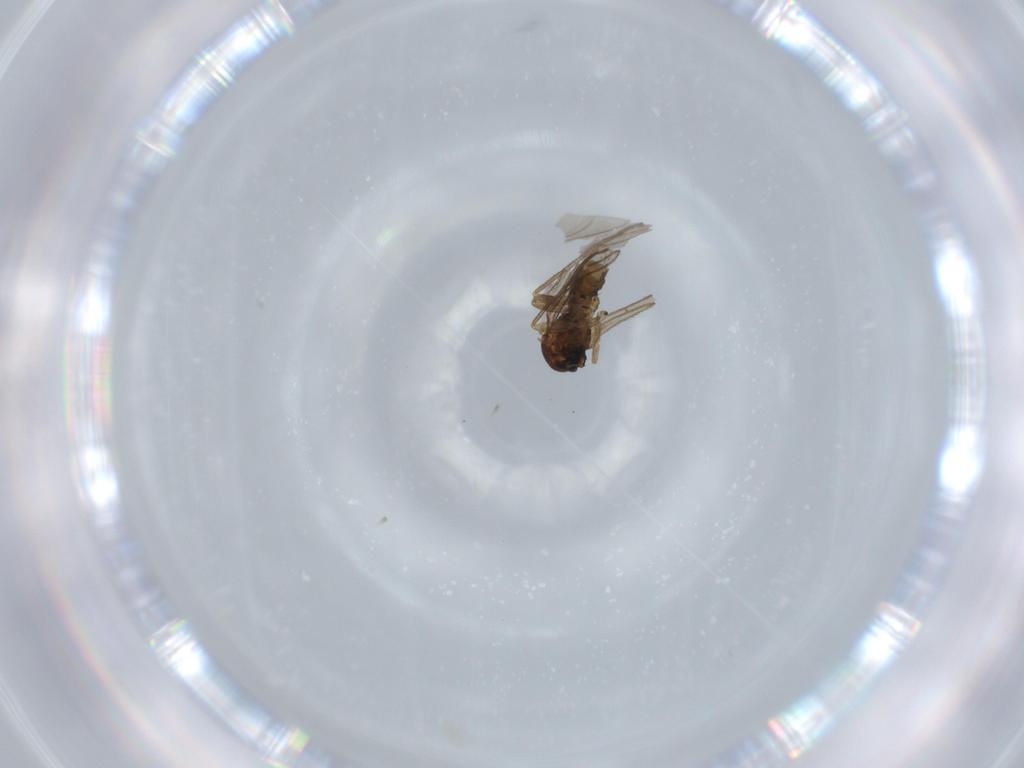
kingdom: Animalia
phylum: Arthropoda
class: Insecta
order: Diptera
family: Sciaridae
